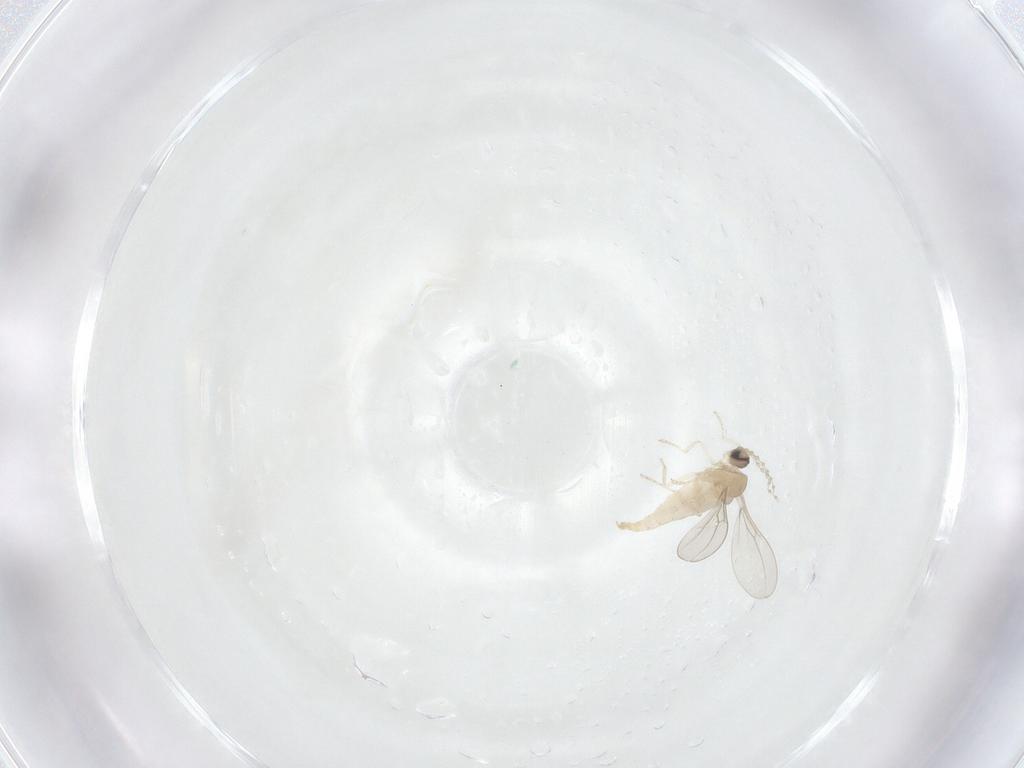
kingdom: Animalia
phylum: Arthropoda
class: Insecta
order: Diptera
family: Cecidomyiidae
